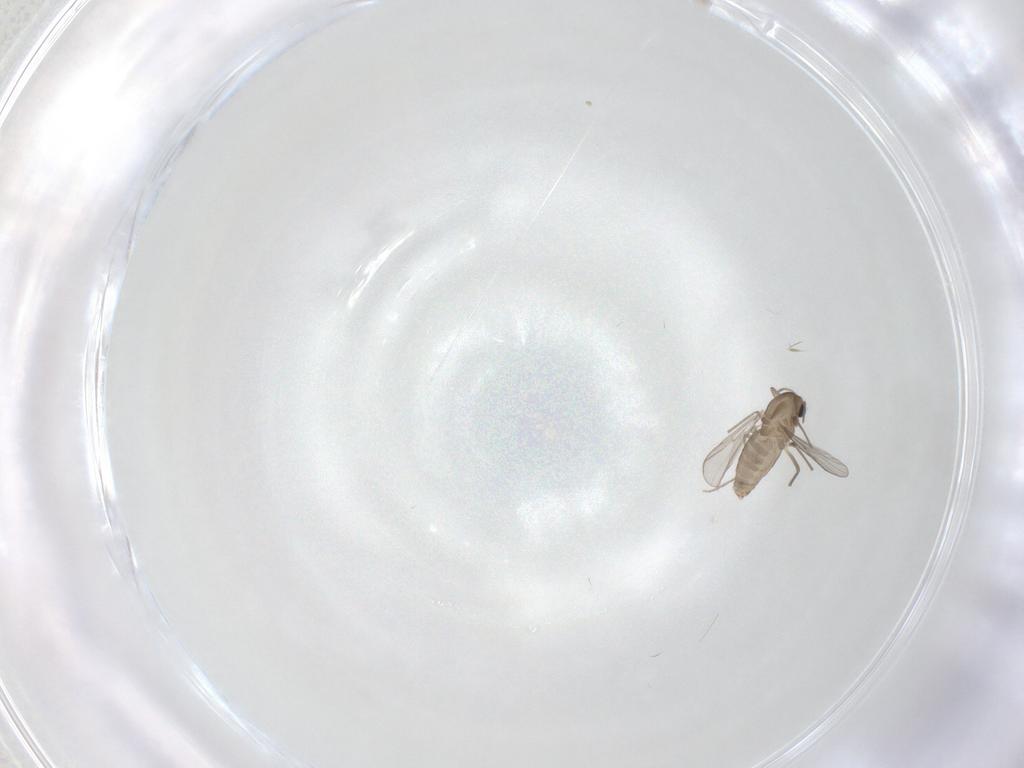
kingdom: Animalia
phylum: Arthropoda
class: Insecta
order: Diptera
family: Chironomidae
